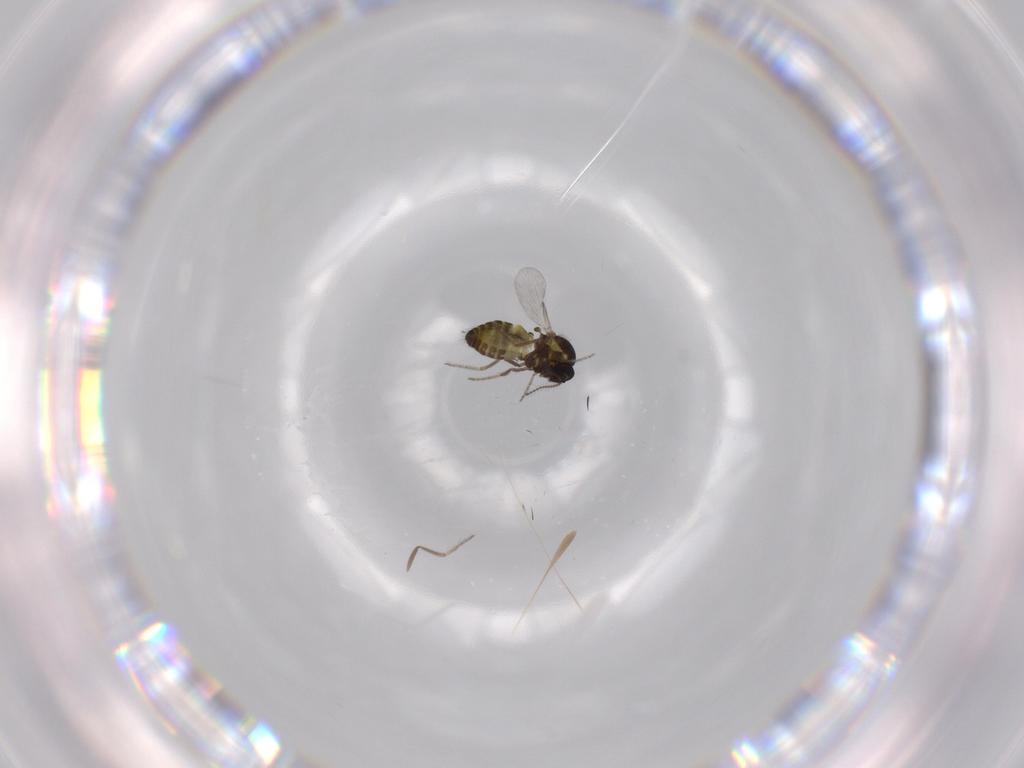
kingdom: Animalia
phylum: Arthropoda
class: Insecta
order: Diptera
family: Ceratopogonidae
